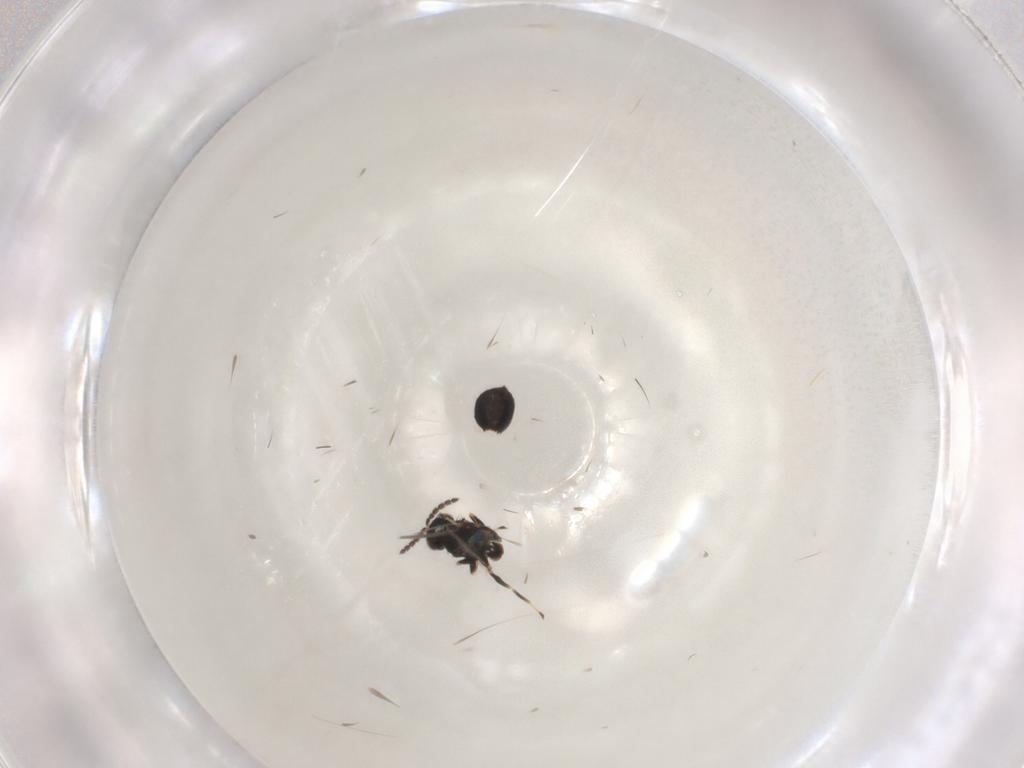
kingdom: Animalia
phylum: Arthropoda
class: Insecta
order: Hymenoptera
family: Eulophidae
